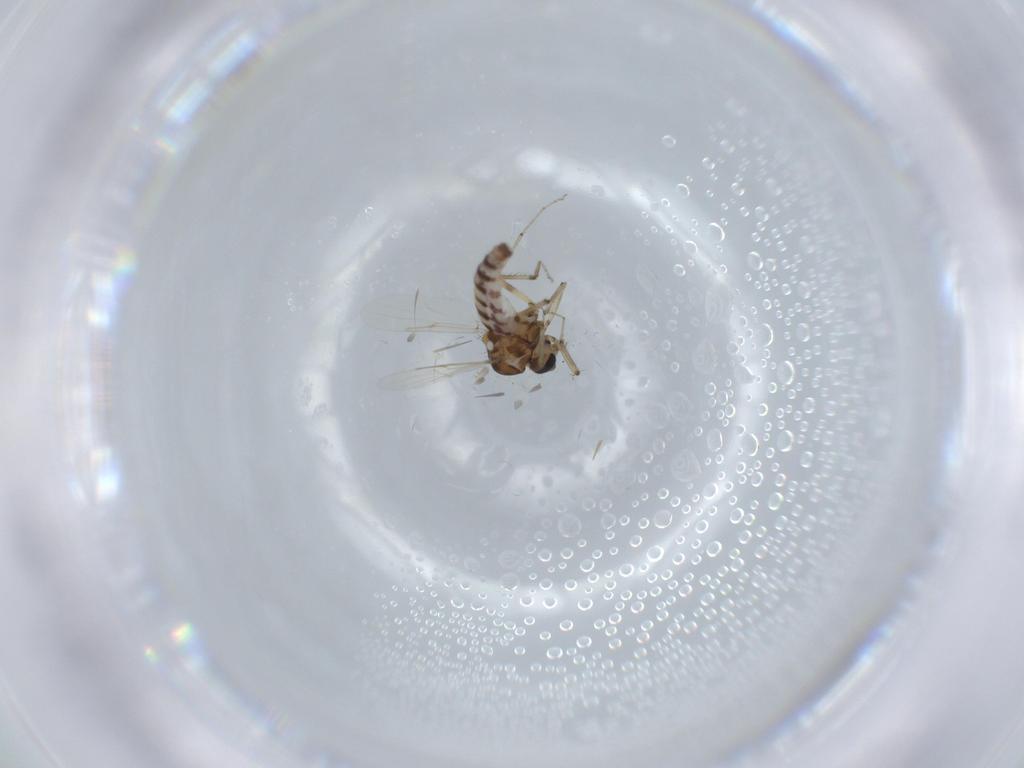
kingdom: Animalia
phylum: Arthropoda
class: Insecta
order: Diptera
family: Ceratopogonidae
